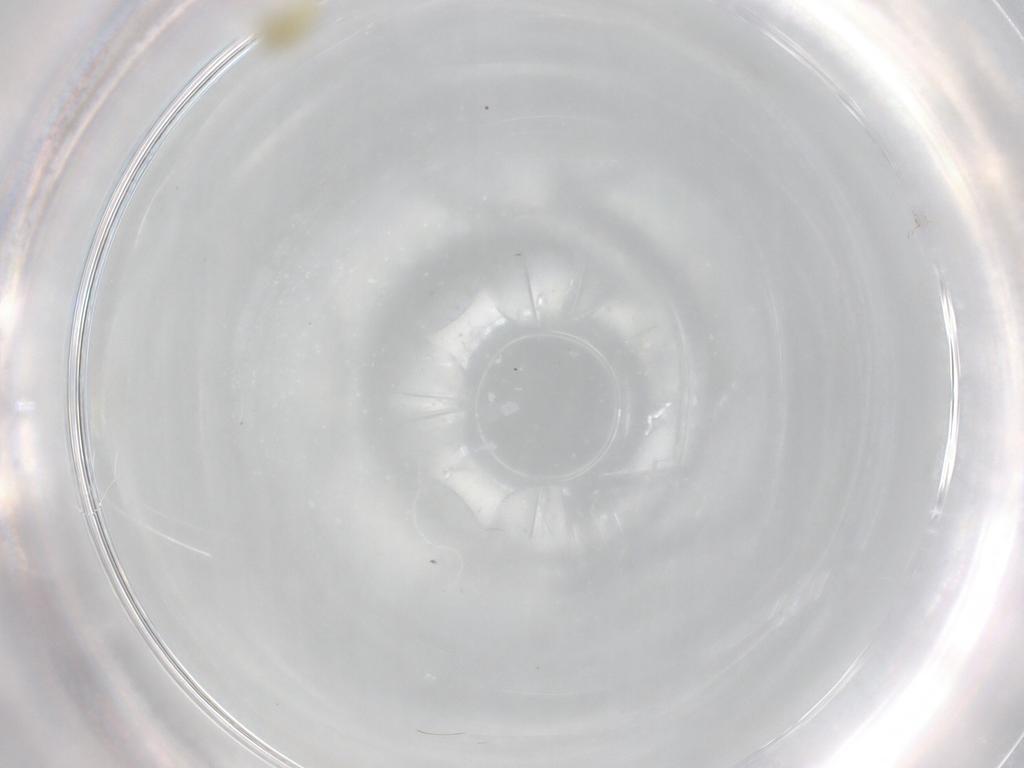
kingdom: Animalia
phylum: Arthropoda
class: Insecta
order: Hemiptera
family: Aleyrodidae
